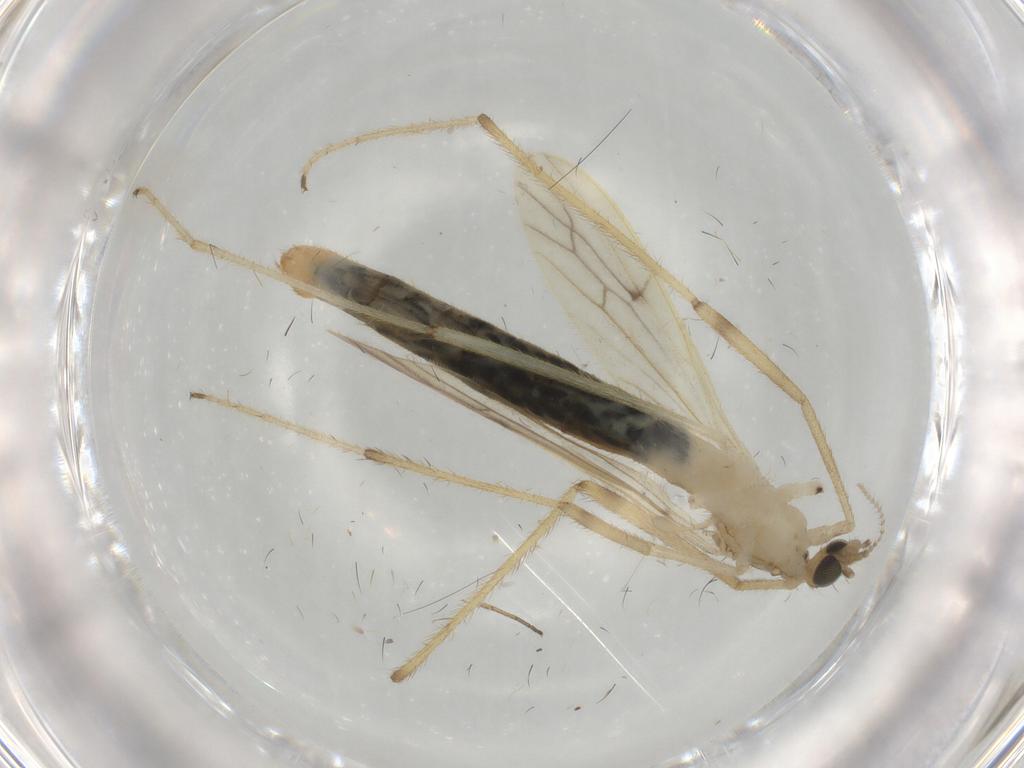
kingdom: Animalia
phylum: Arthropoda
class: Insecta
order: Diptera
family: Limoniidae
